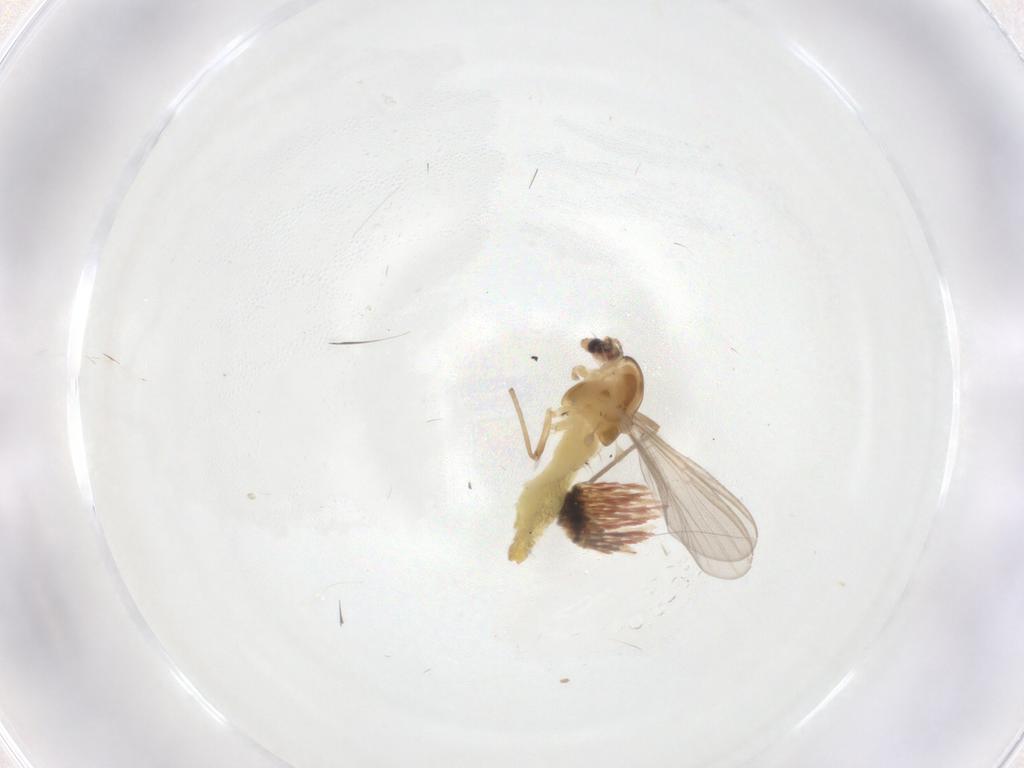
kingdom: Animalia
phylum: Arthropoda
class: Insecta
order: Diptera
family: Chironomidae
